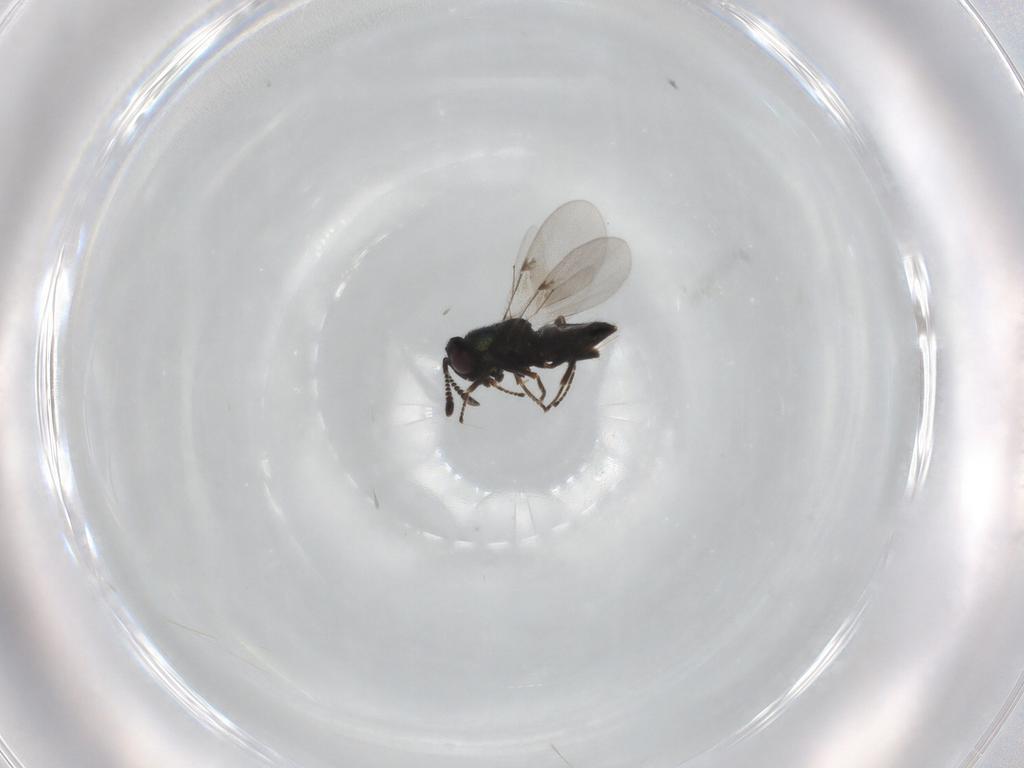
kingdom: Animalia
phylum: Arthropoda
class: Insecta
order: Hymenoptera
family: Encyrtidae
